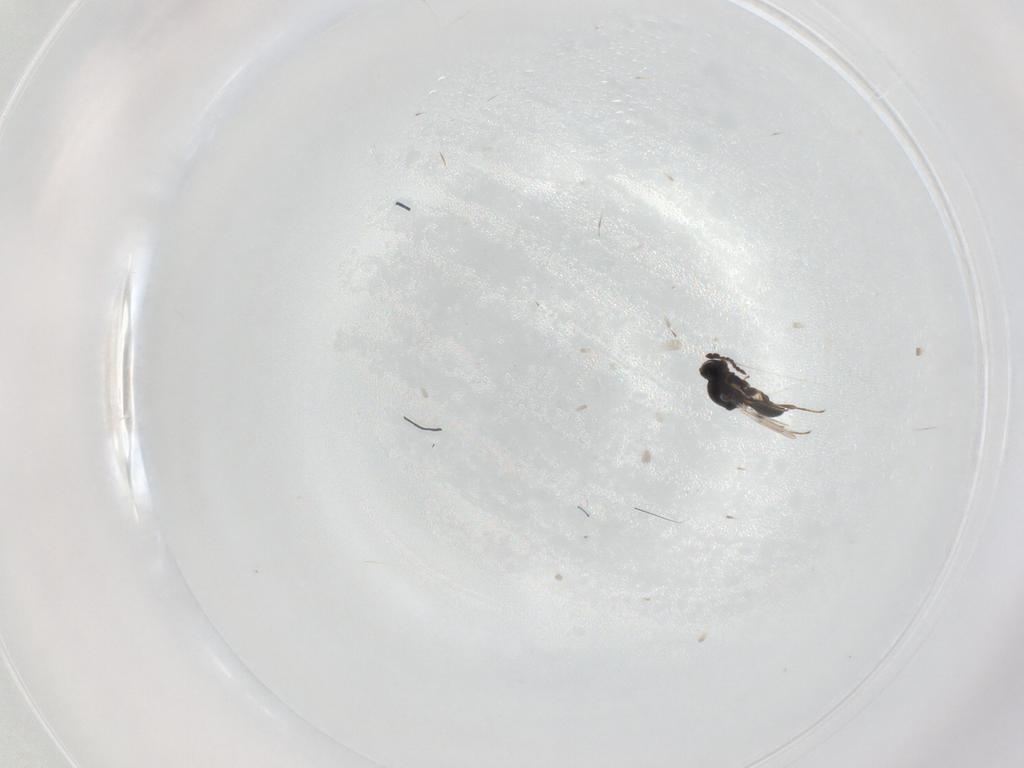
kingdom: Animalia
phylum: Arthropoda
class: Insecta
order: Hymenoptera
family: Platygastridae
